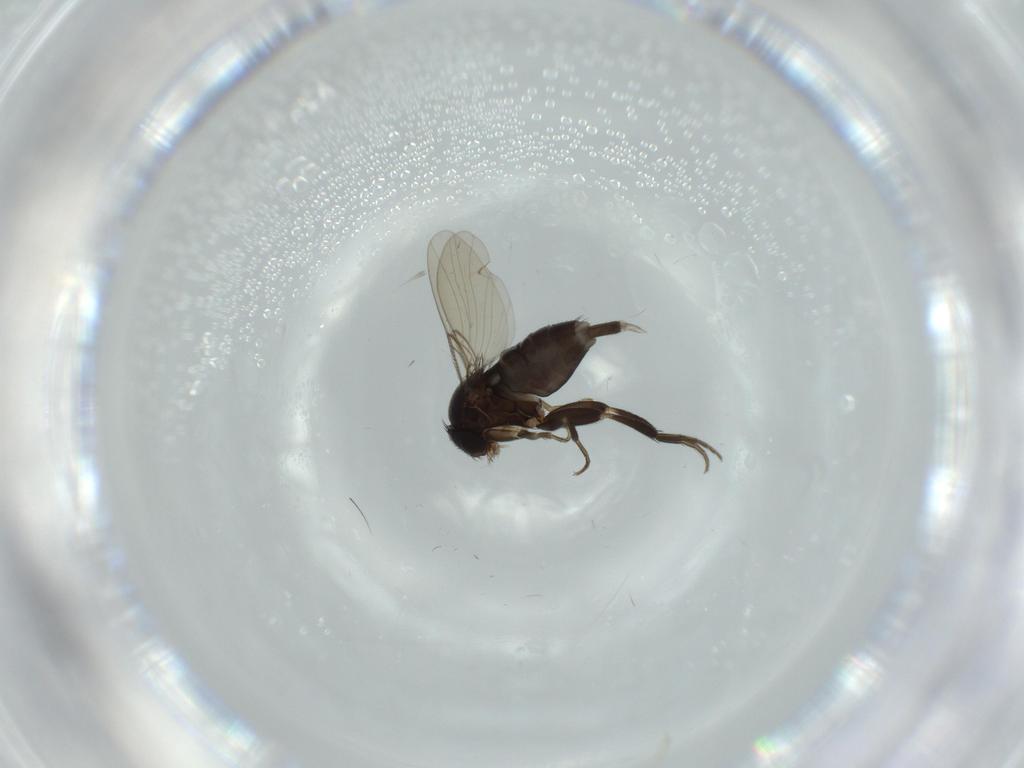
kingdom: Animalia
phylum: Arthropoda
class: Insecta
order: Diptera
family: Phoridae
